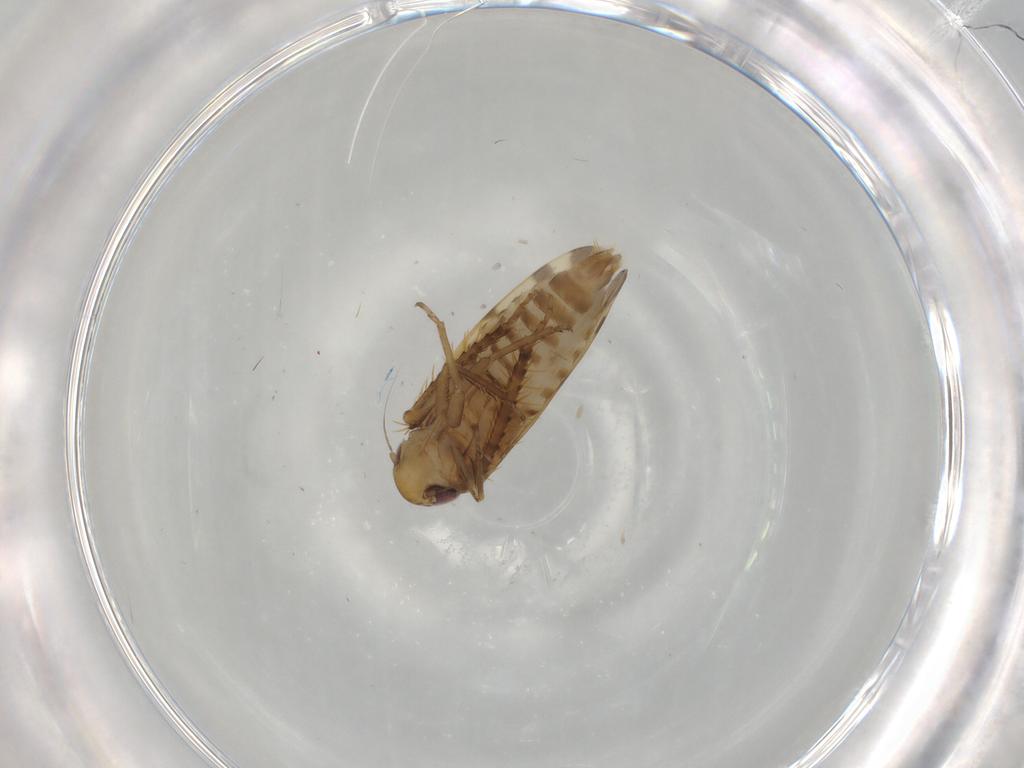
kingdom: Animalia
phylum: Arthropoda
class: Insecta
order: Hemiptera
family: Cicadellidae
